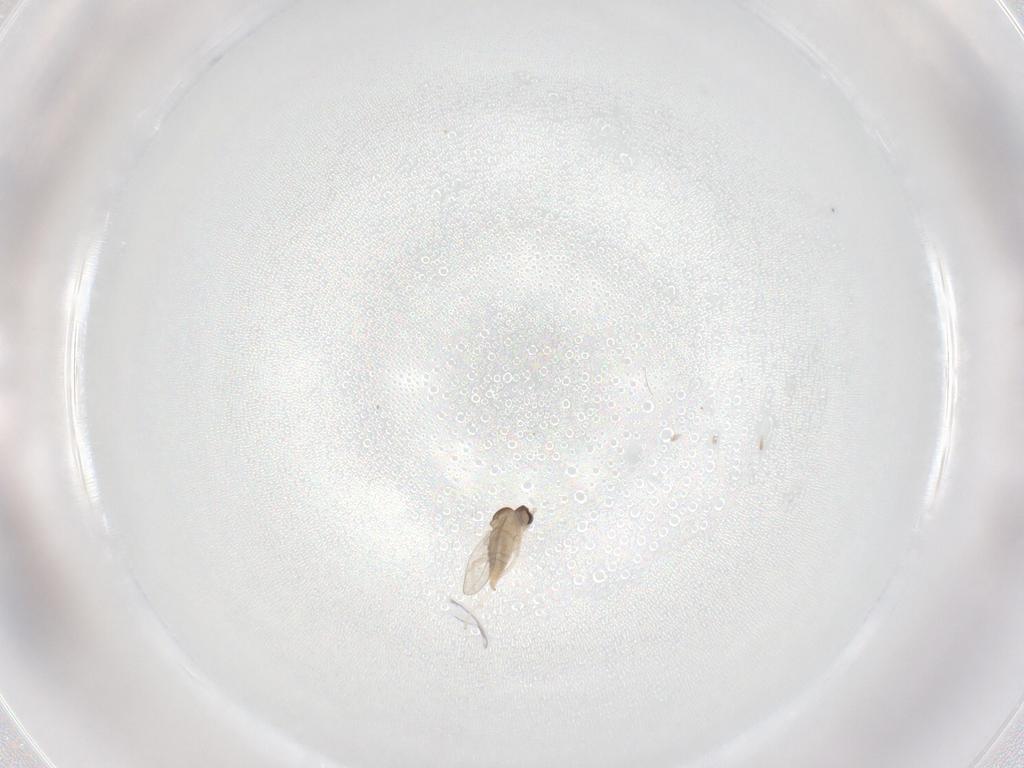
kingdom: Animalia
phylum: Arthropoda
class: Insecta
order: Diptera
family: Cecidomyiidae
